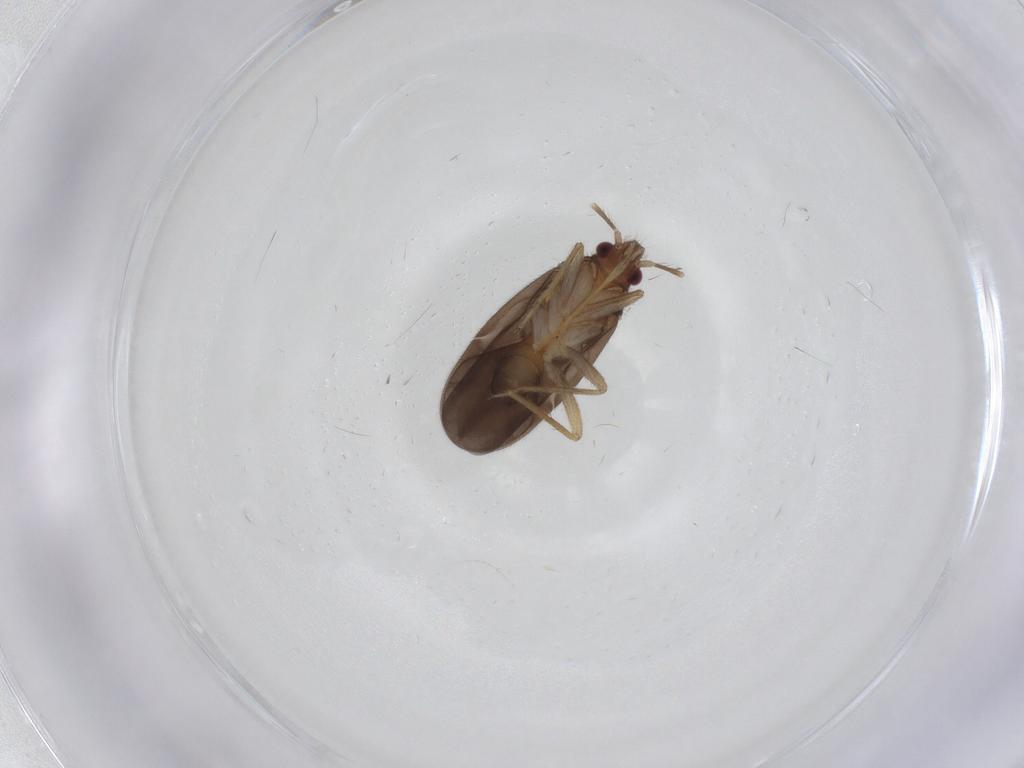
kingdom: Animalia
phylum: Arthropoda
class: Insecta
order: Hemiptera
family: Ceratocombidae
